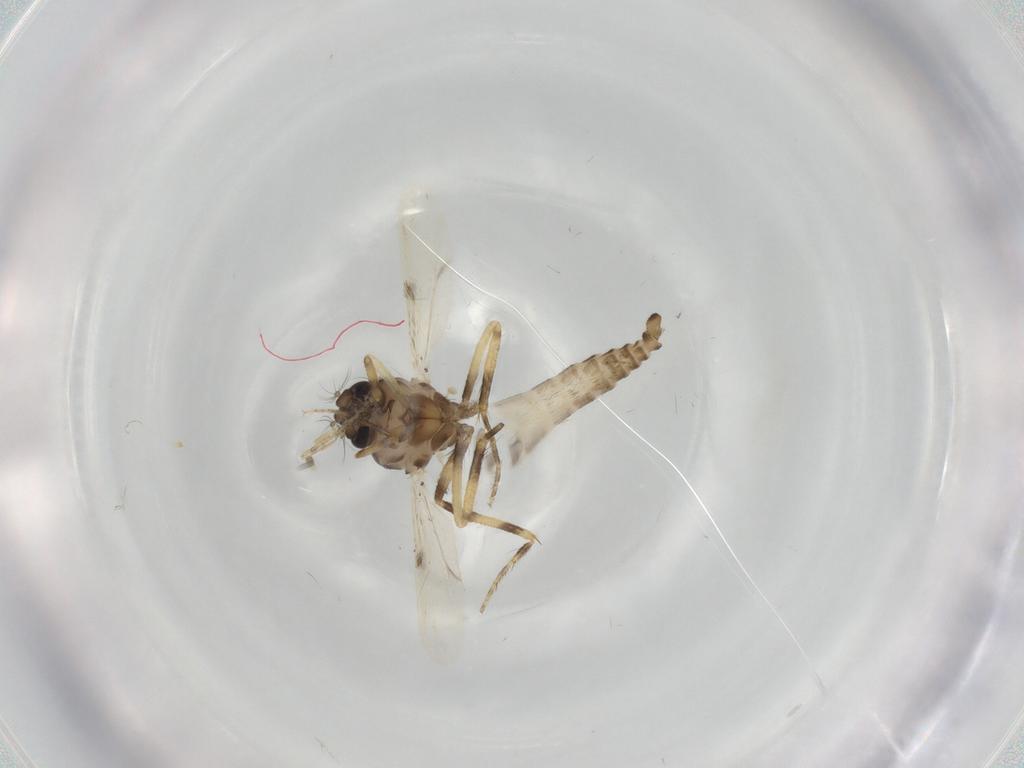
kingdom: Animalia
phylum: Arthropoda
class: Insecta
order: Diptera
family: Ceratopogonidae
